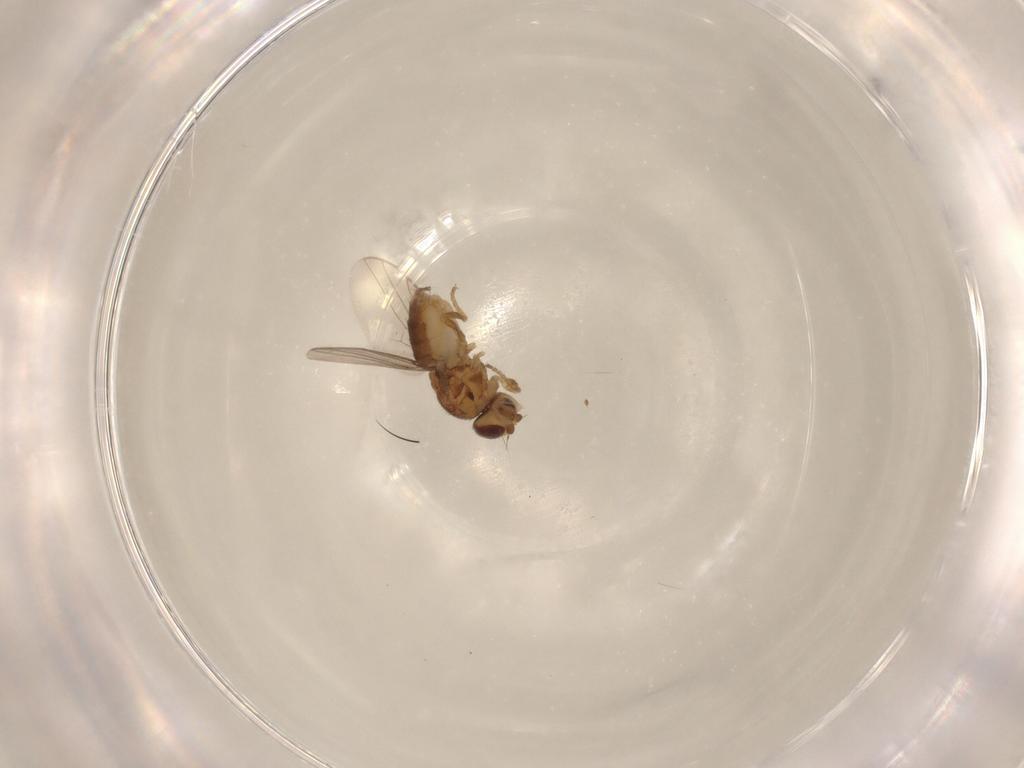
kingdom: Animalia
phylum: Arthropoda
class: Insecta
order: Diptera
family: Chloropidae
